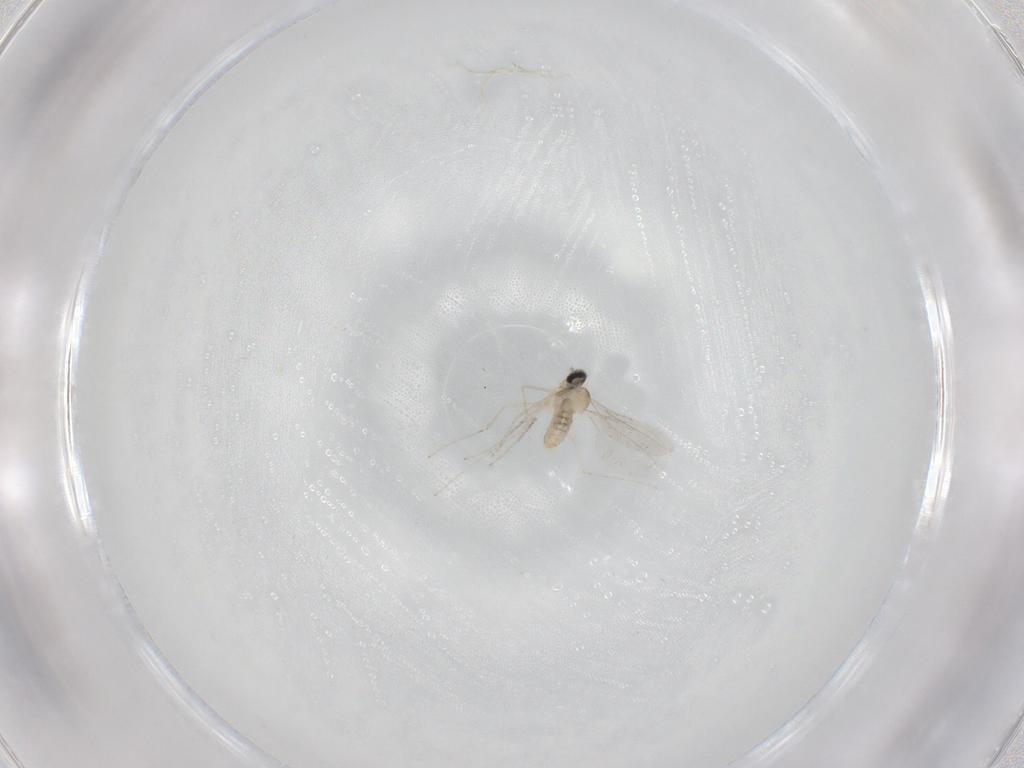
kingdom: Animalia
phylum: Arthropoda
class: Insecta
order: Diptera
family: Cecidomyiidae
